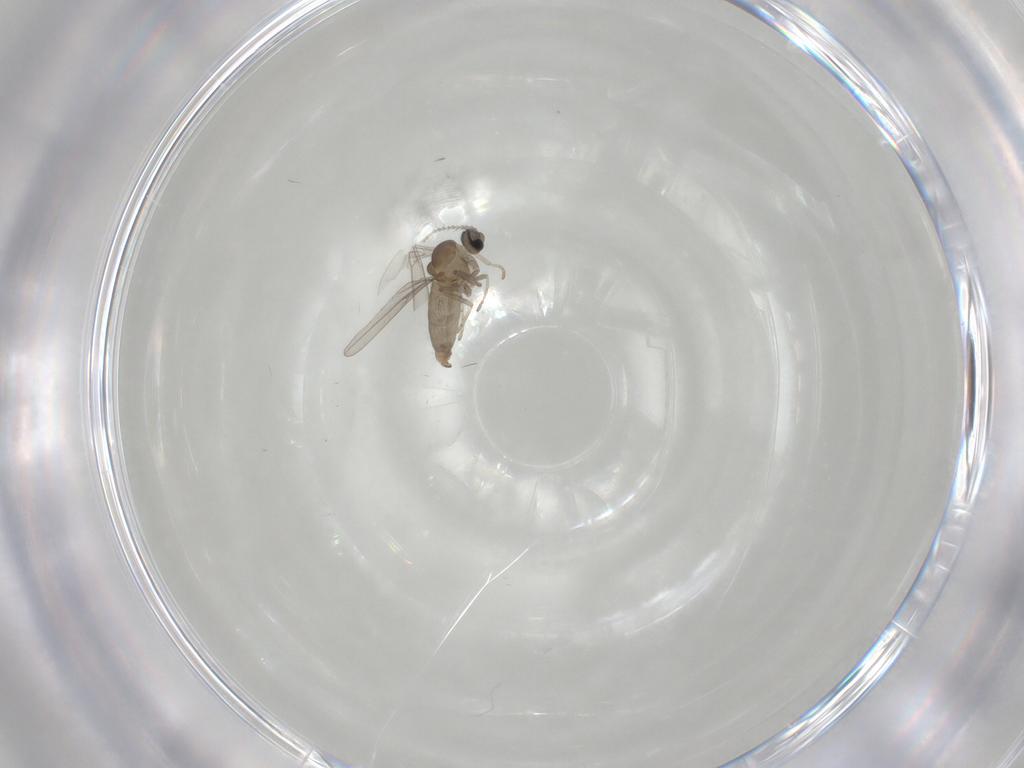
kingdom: Animalia
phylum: Arthropoda
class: Insecta
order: Diptera
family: Cecidomyiidae
